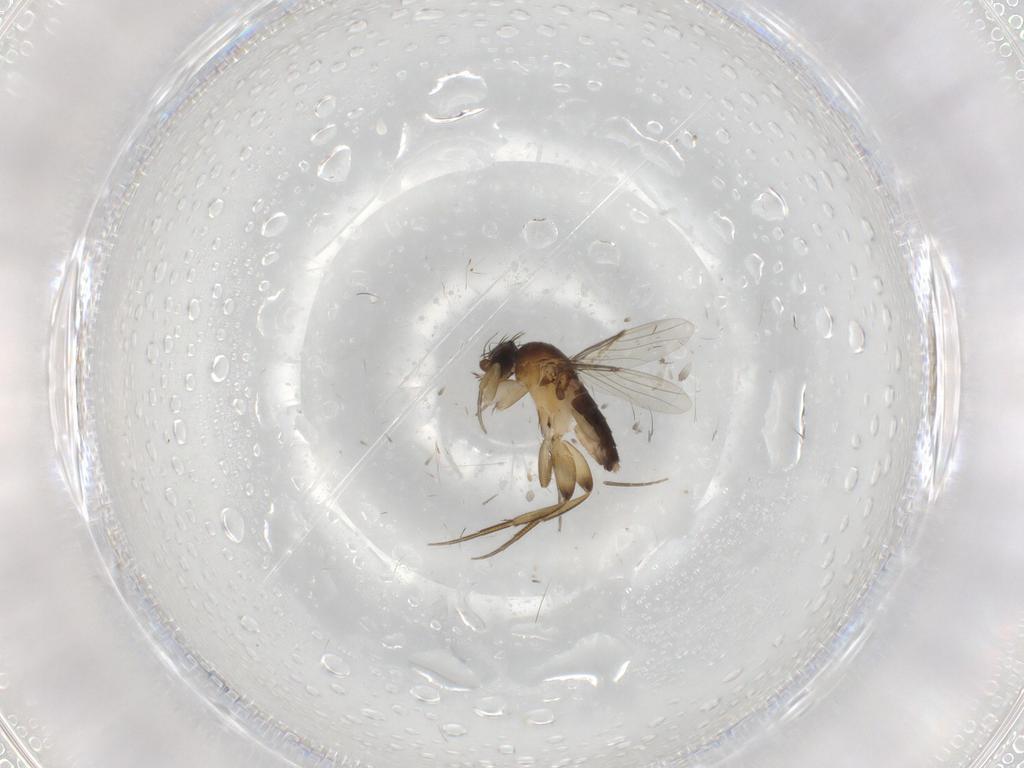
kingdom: Animalia
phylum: Arthropoda
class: Insecta
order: Diptera
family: Phoridae
